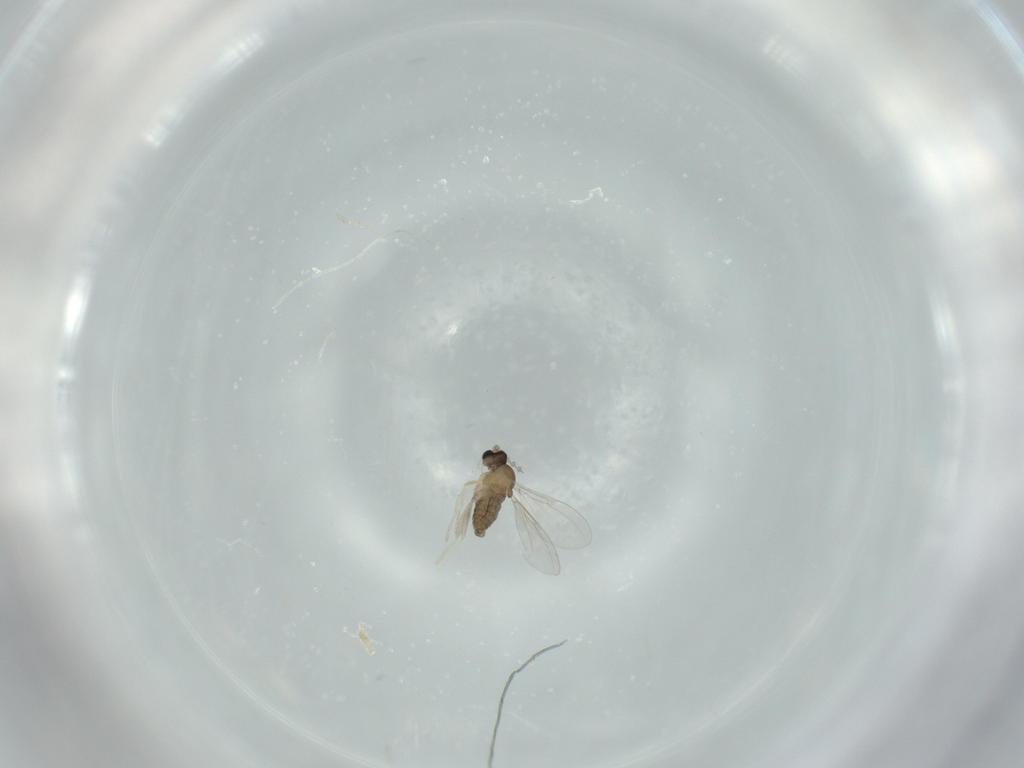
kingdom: Animalia
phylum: Arthropoda
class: Insecta
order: Diptera
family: Cecidomyiidae
